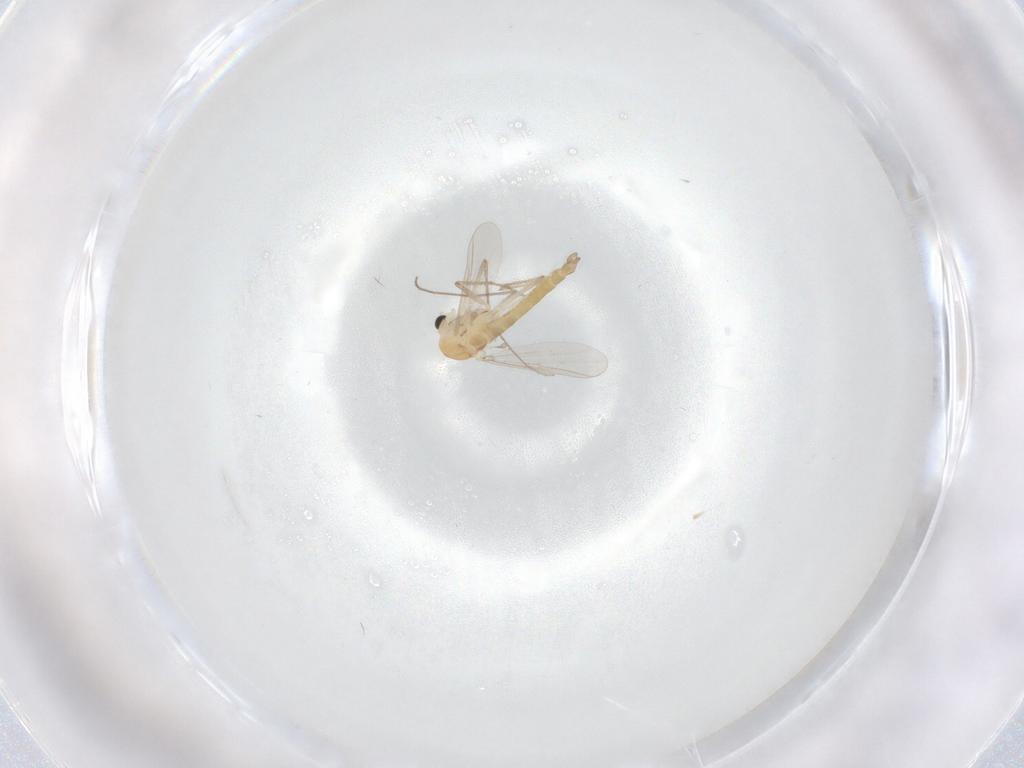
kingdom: Animalia
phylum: Arthropoda
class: Insecta
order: Diptera
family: Chironomidae
